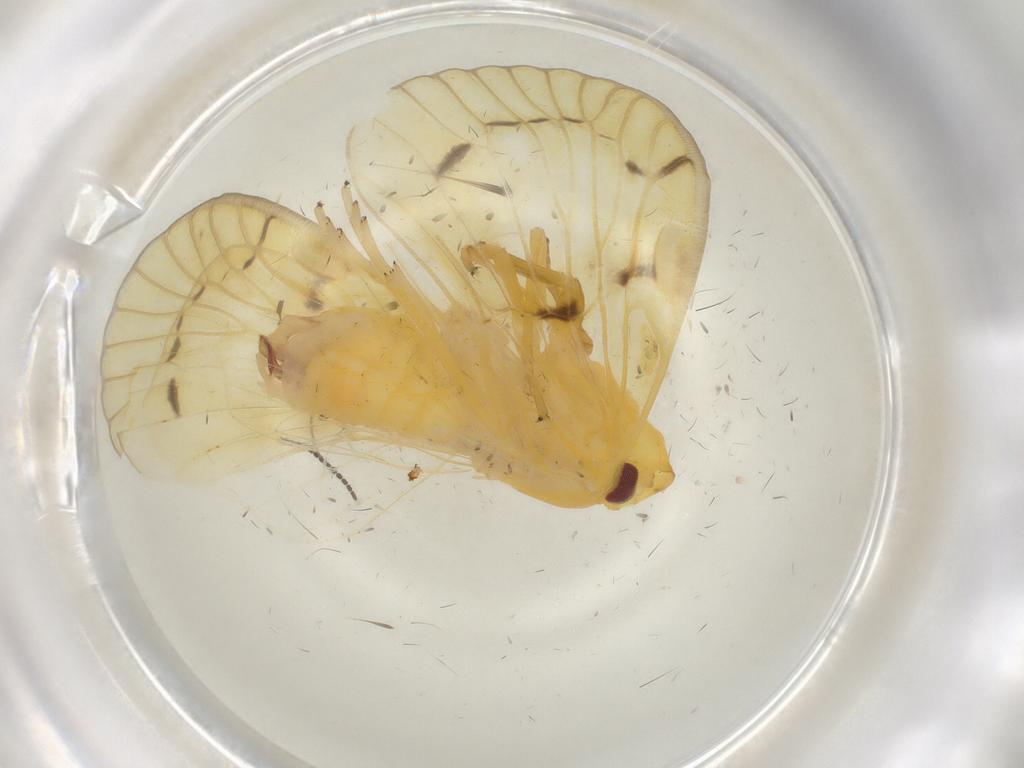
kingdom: Animalia
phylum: Arthropoda
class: Insecta
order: Hemiptera
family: Cixiidae
